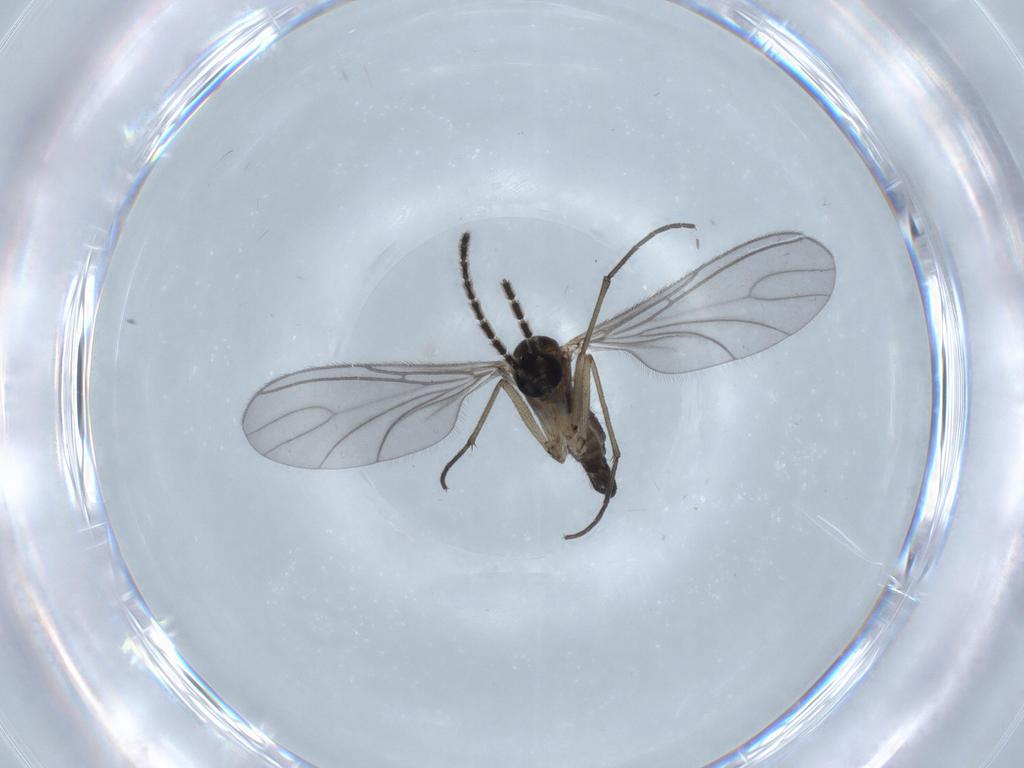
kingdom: Animalia
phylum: Arthropoda
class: Insecta
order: Diptera
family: Sciaridae
